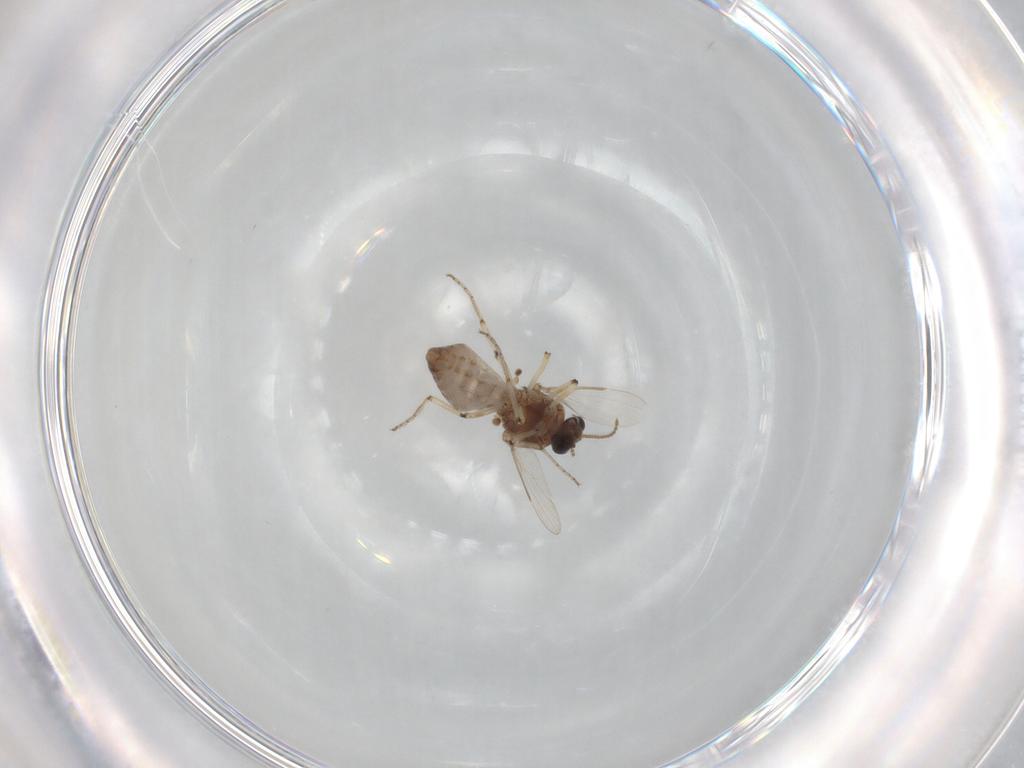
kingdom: Animalia
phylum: Arthropoda
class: Insecta
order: Diptera
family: Ceratopogonidae
